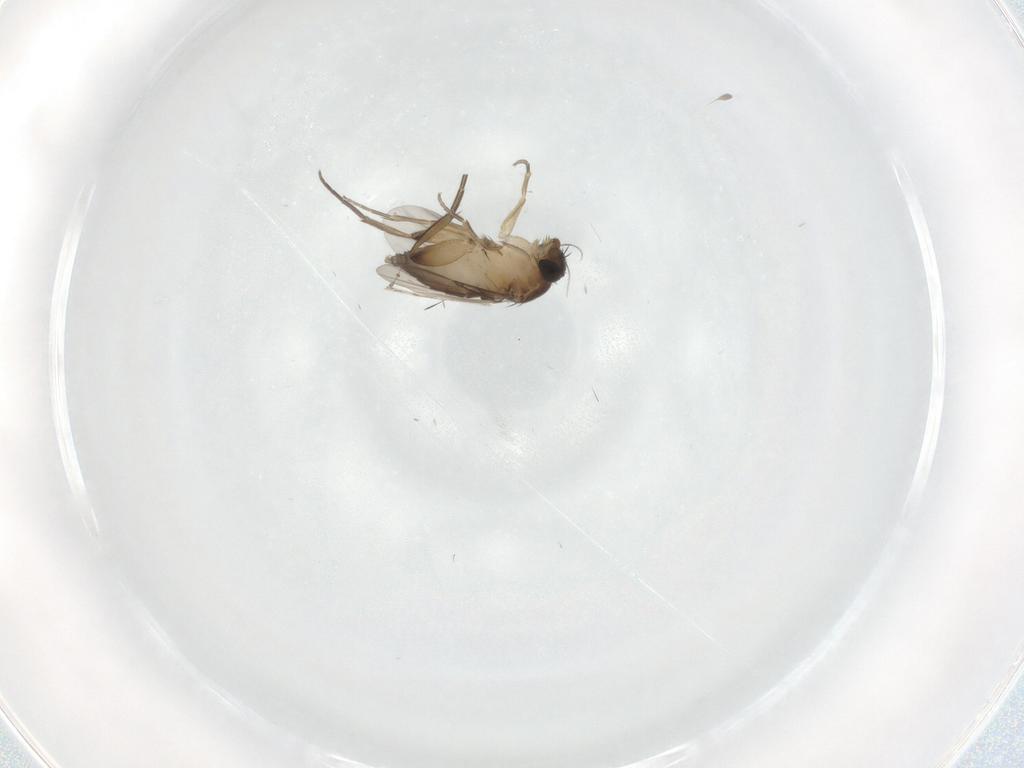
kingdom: Animalia
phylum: Arthropoda
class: Insecta
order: Diptera
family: Phoridae
